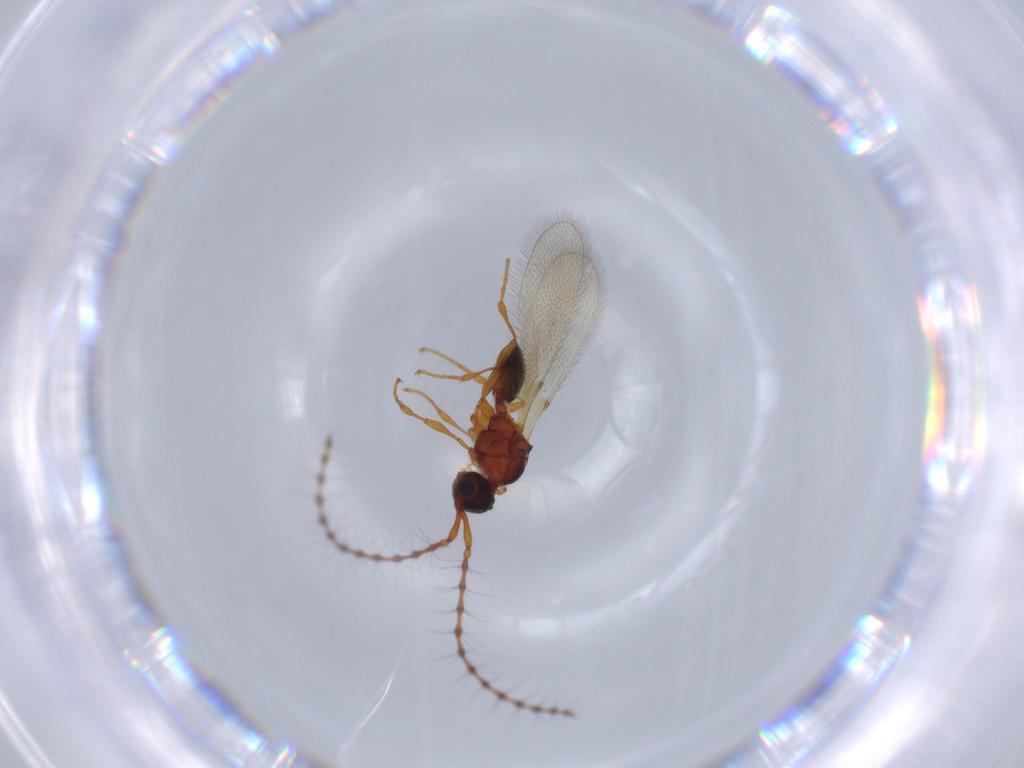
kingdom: Animalia
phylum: Arthropoda
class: Insecta
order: Hymenoptera
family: Diapriidae
